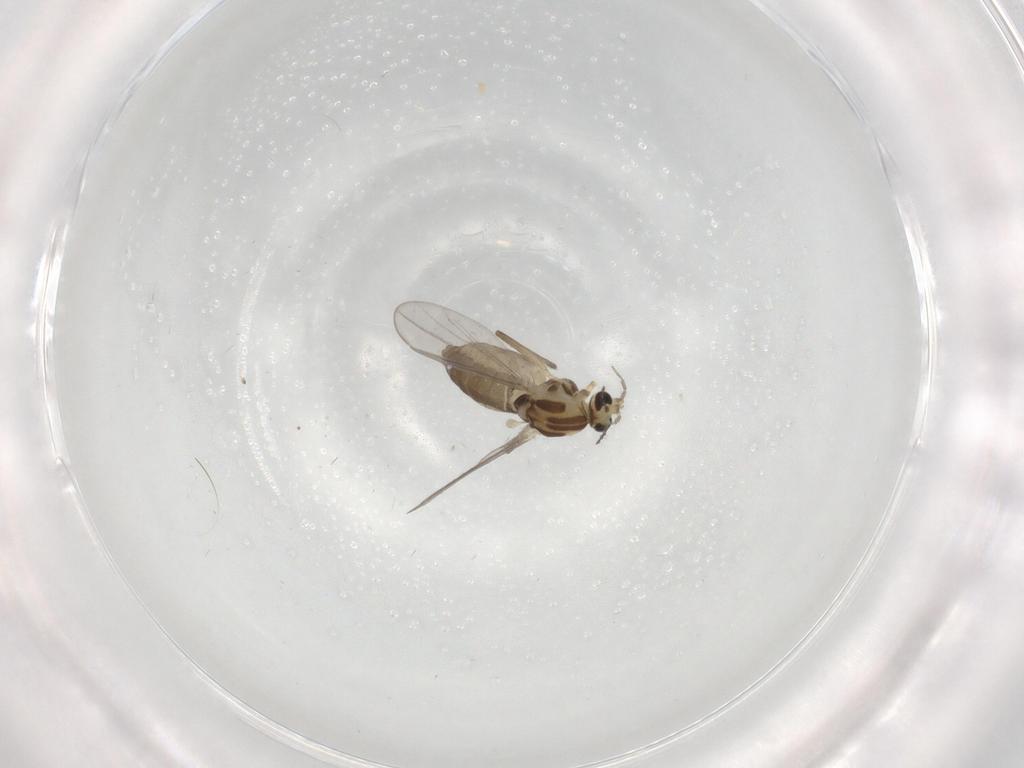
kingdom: Animalia
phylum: Arthropoda
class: Insecta
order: Diptera
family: Chironomidae
